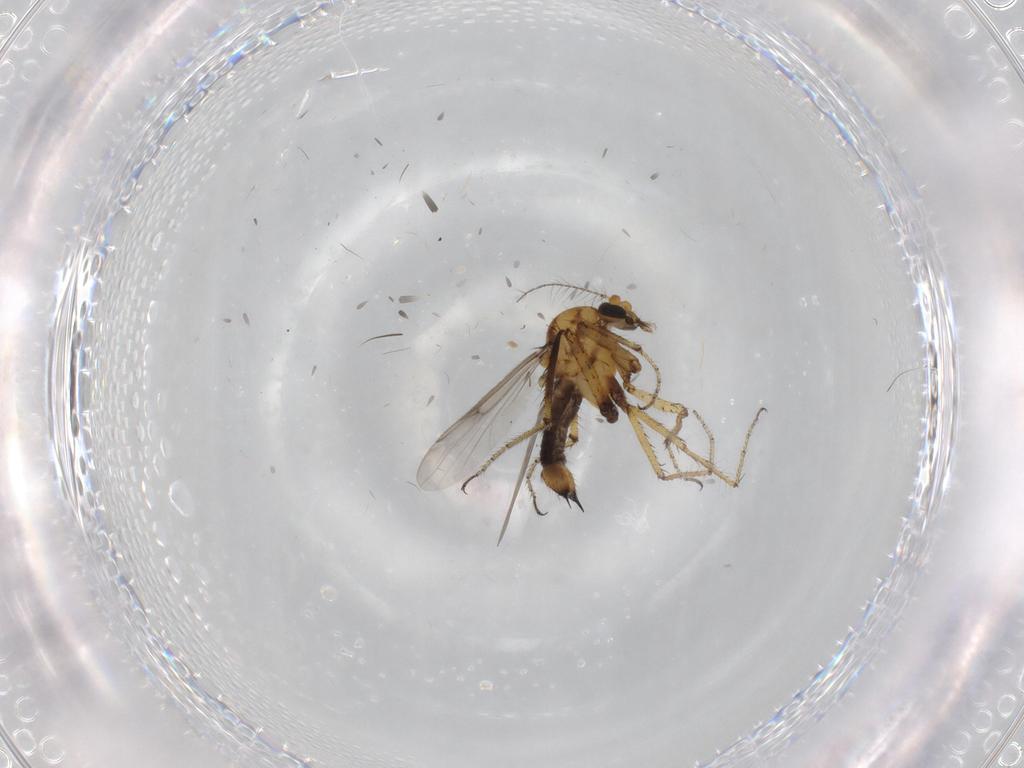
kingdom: Animalia
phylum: Arthropoda
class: Insecta
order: Diptera
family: Ceratopogonidae
